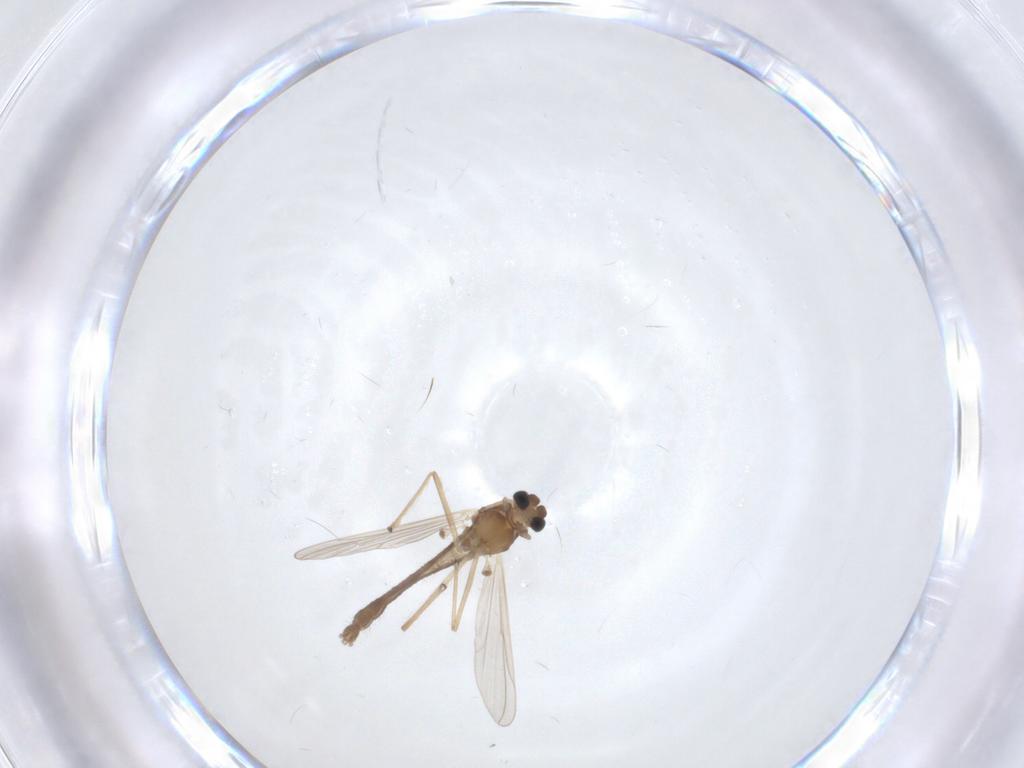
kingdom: Animalia
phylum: Arthropoda
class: Insecta
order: Diptera
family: Chironomidae
